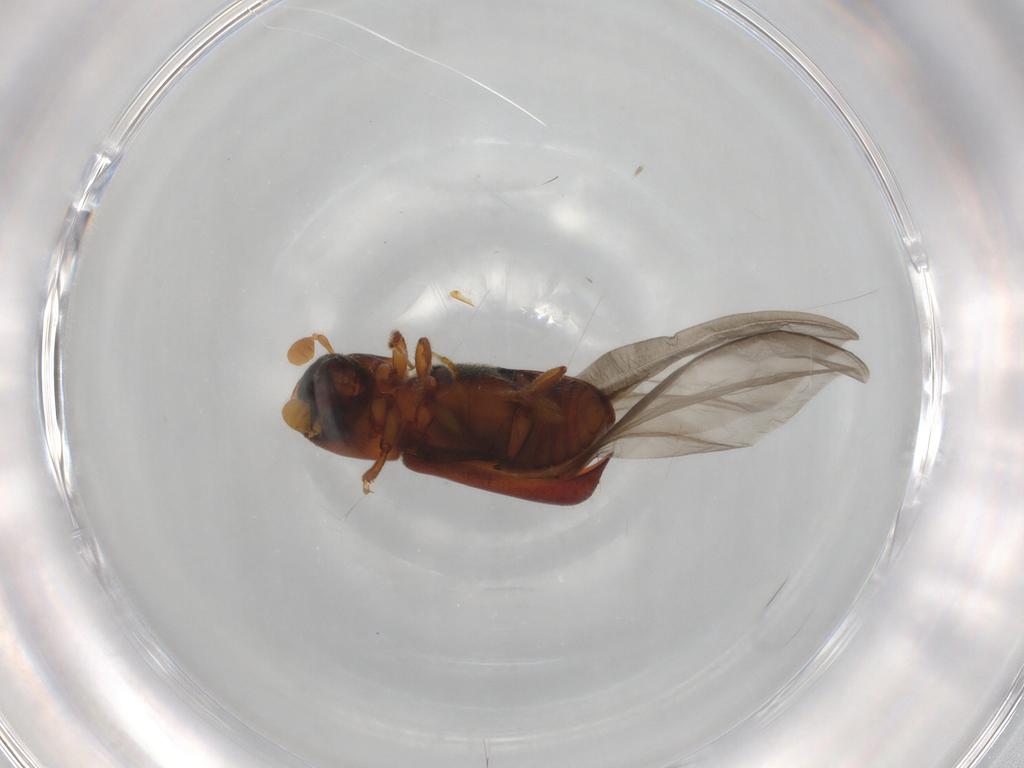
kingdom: Animalia
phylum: Arthropoda
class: Insecta
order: Coleoptera
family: Curculionidae
